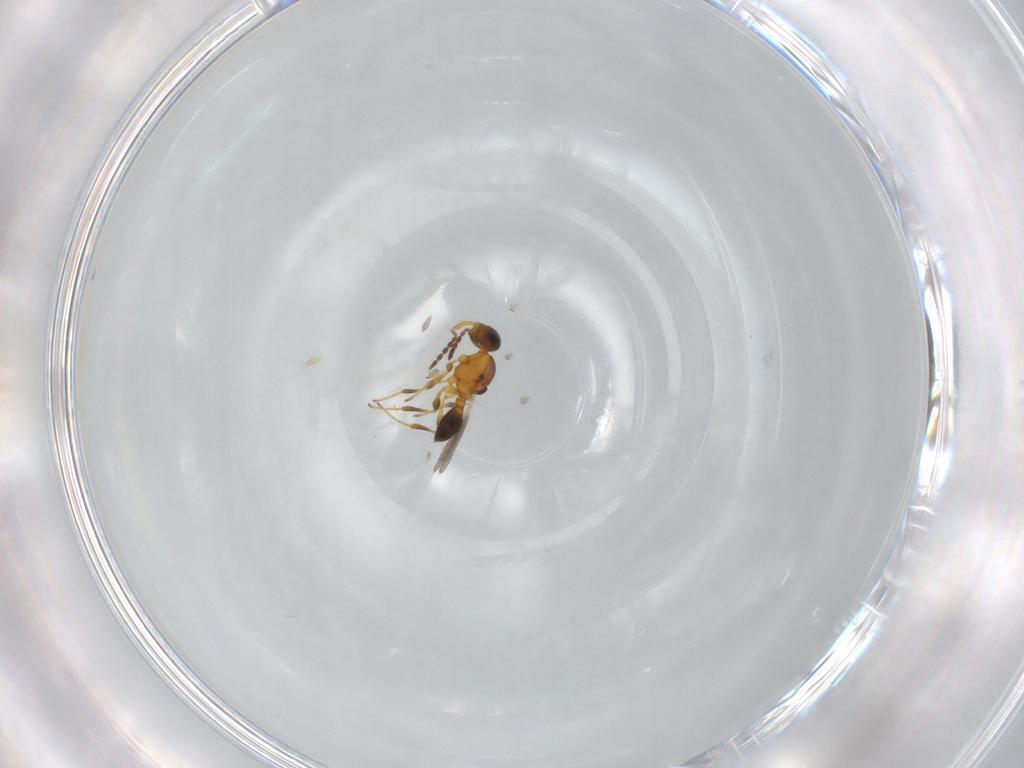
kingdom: Animalia
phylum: Arthropoda
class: Insecta
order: Hymenoptera
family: Platygastridae
